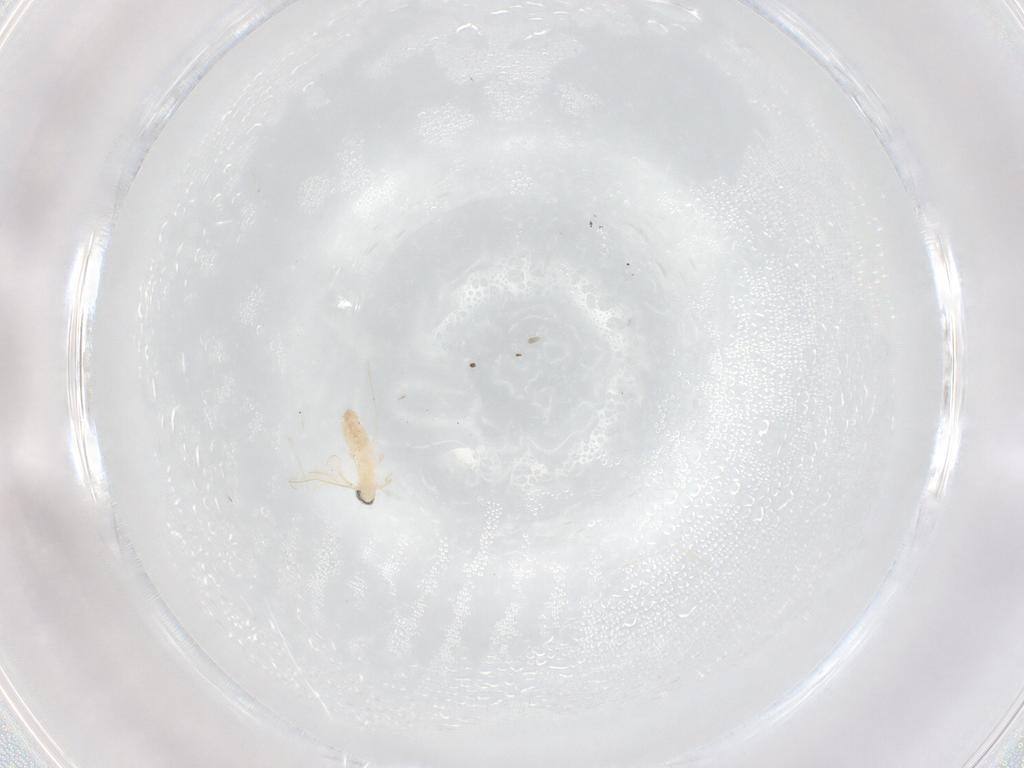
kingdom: Animalia
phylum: Arthropoda
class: Insecta
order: Diptera
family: Cecidomyiidae
